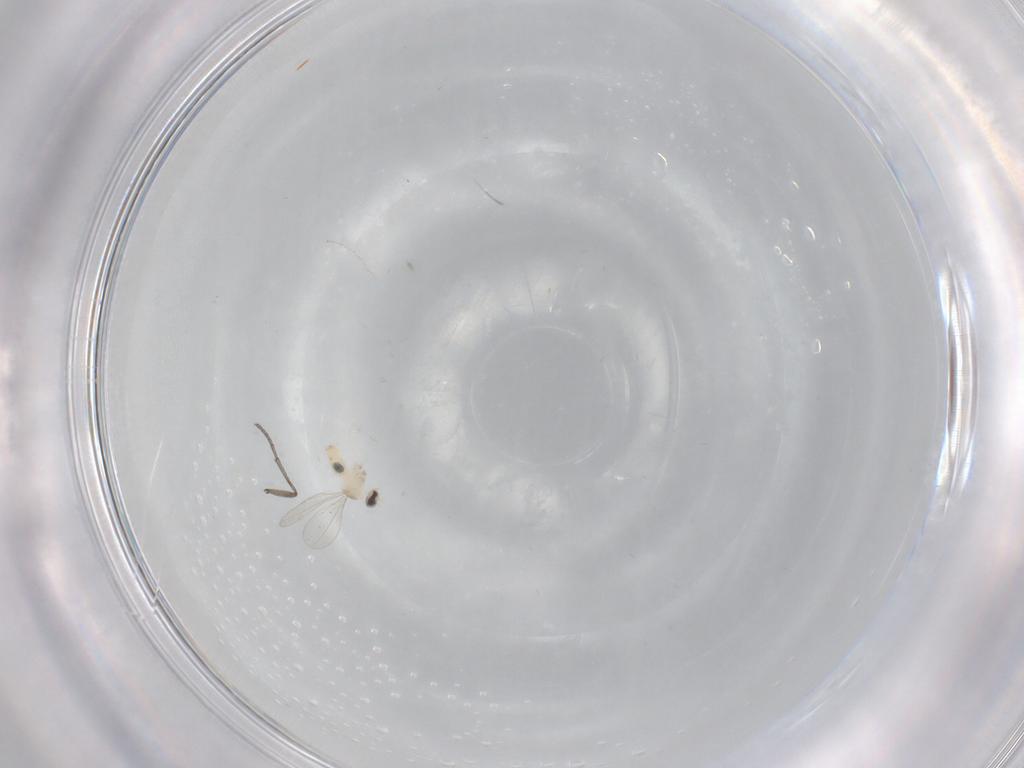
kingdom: Animalia
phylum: Arthropoda
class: Insecta
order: Diptera
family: Cecidomyiidae
